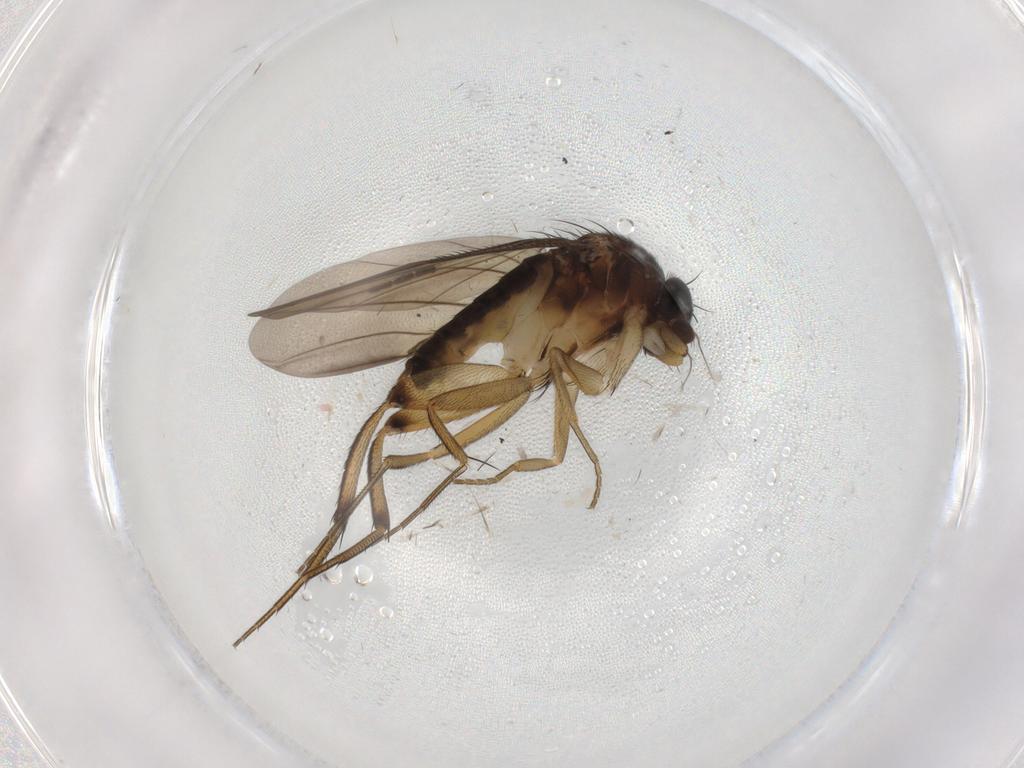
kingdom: Animalia
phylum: Arthropoda
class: Insecta
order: Diptera
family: Phoridae
